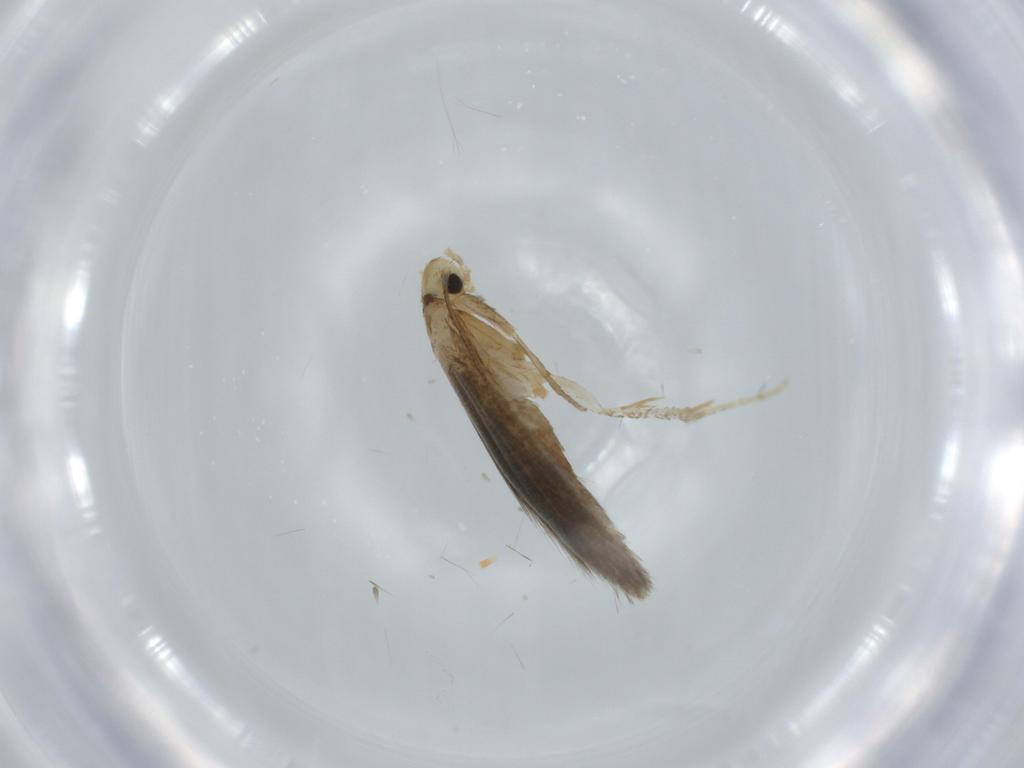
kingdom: Animalia
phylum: Arthropoda
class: Insecta
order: Lepidoptera
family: Tineidae
